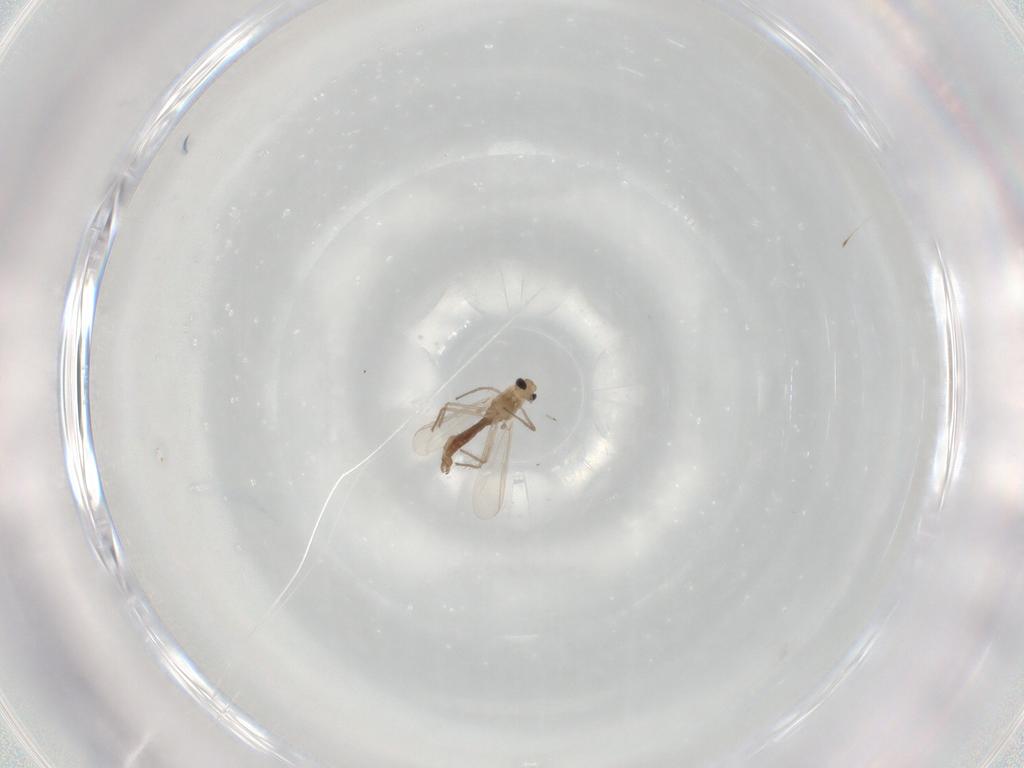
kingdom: Animalia
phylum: Arthropoda
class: Insecta
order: Diptera
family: Chironomidae
